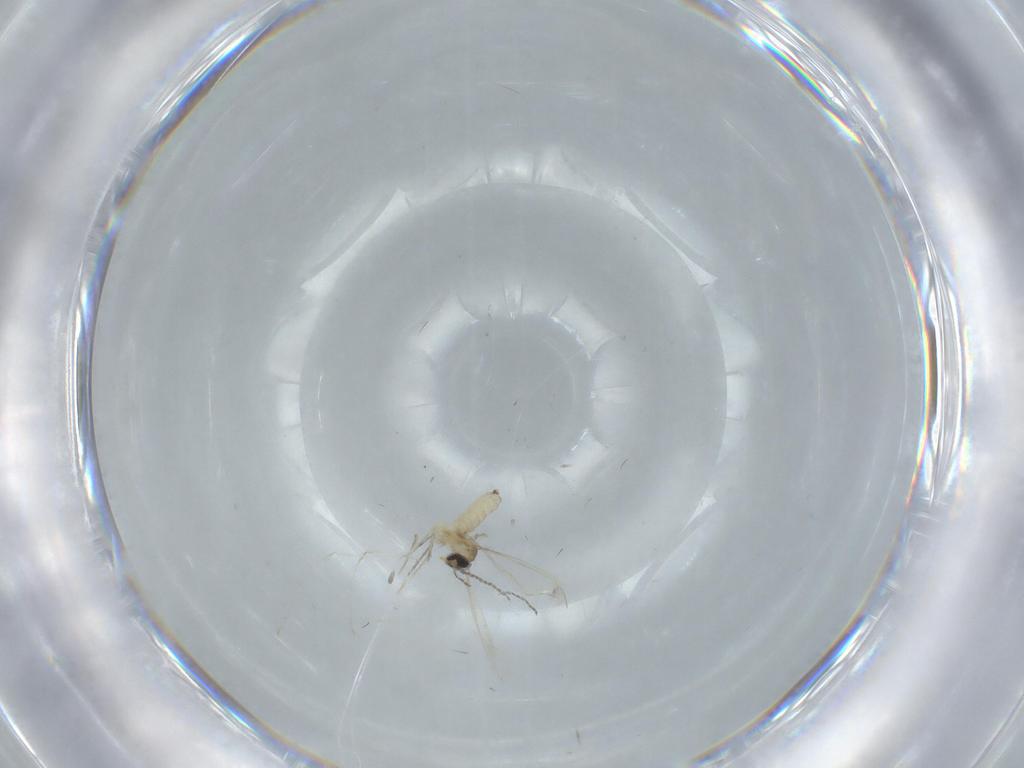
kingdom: Animalia
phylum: Arthropoda
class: Insecta
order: Diptera
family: Cecidomyiidae
